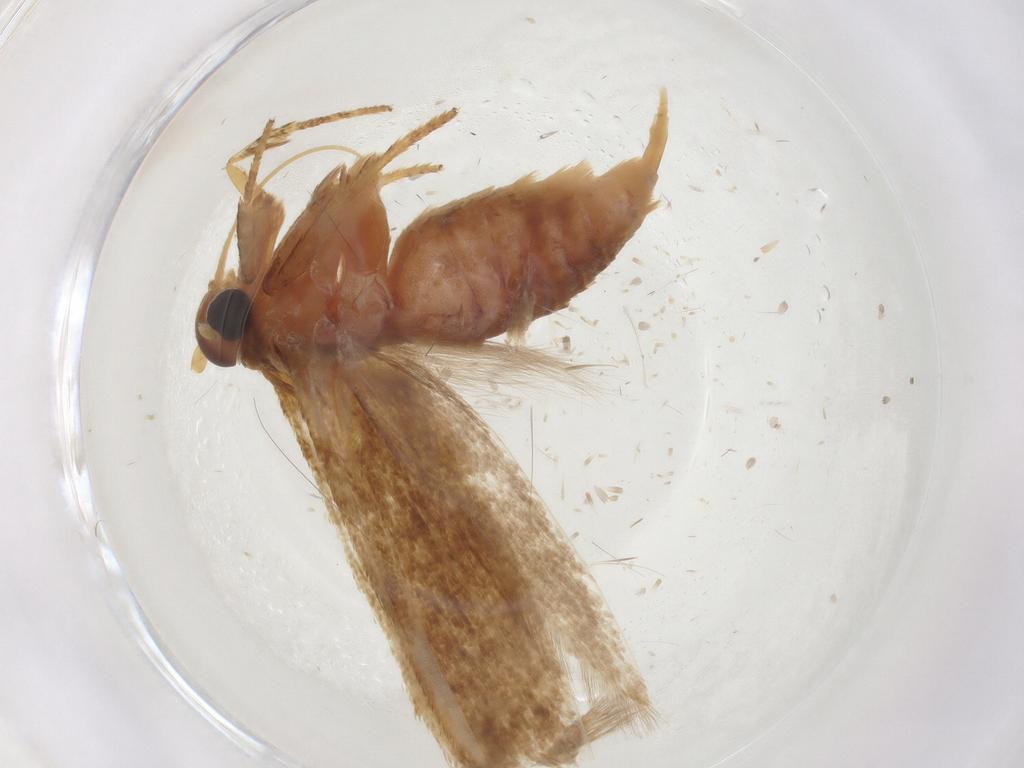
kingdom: Animalia
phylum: Arthropoda
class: Insecta
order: Lepidoptera
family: Blastobasidae
